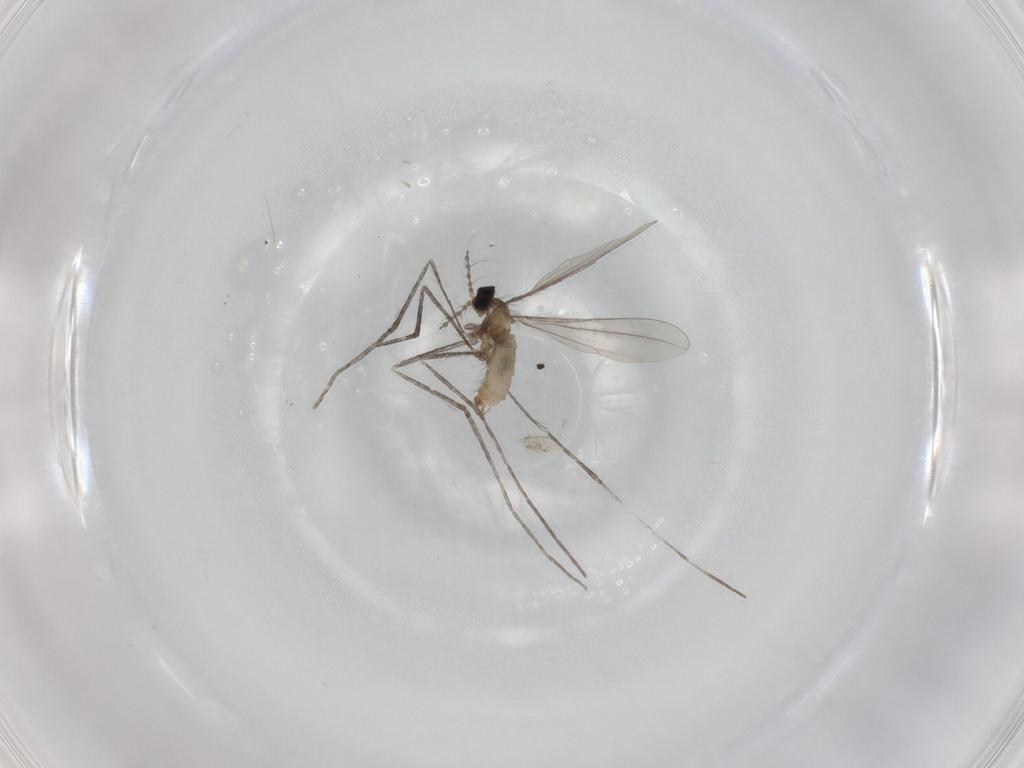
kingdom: Animalia
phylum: Arthropoda
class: Insecta
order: Diptera
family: Cecidomyiidae
